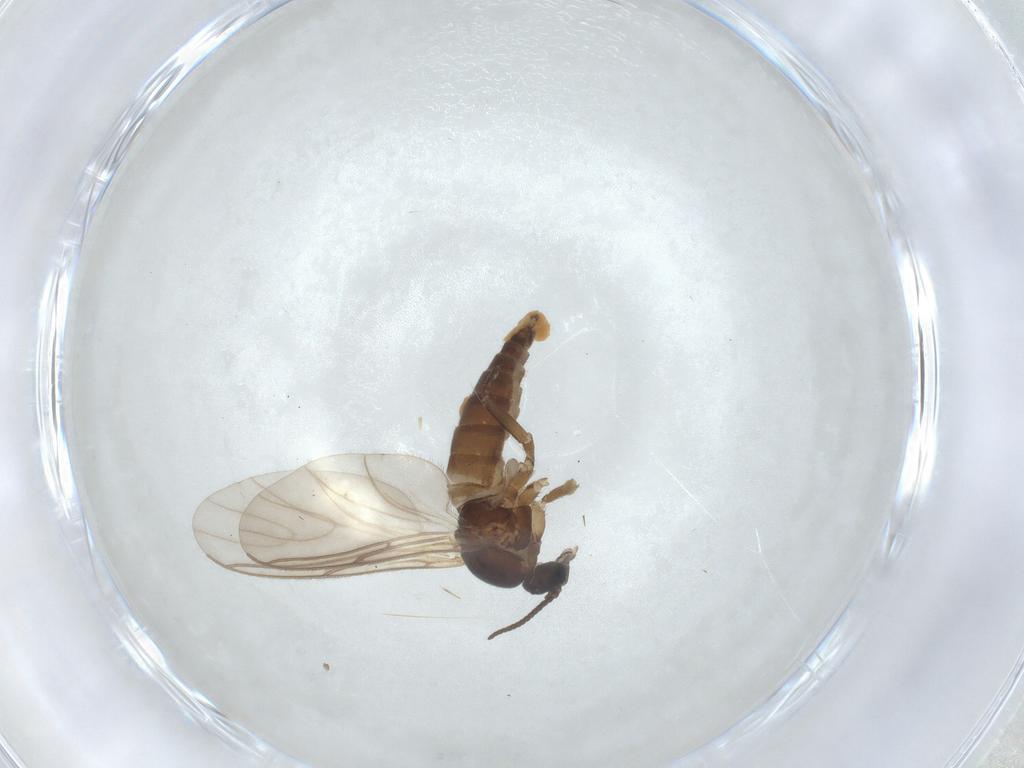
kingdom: Animalia
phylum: Arthropoda
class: Insecta
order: Diptera
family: Sciaridae
